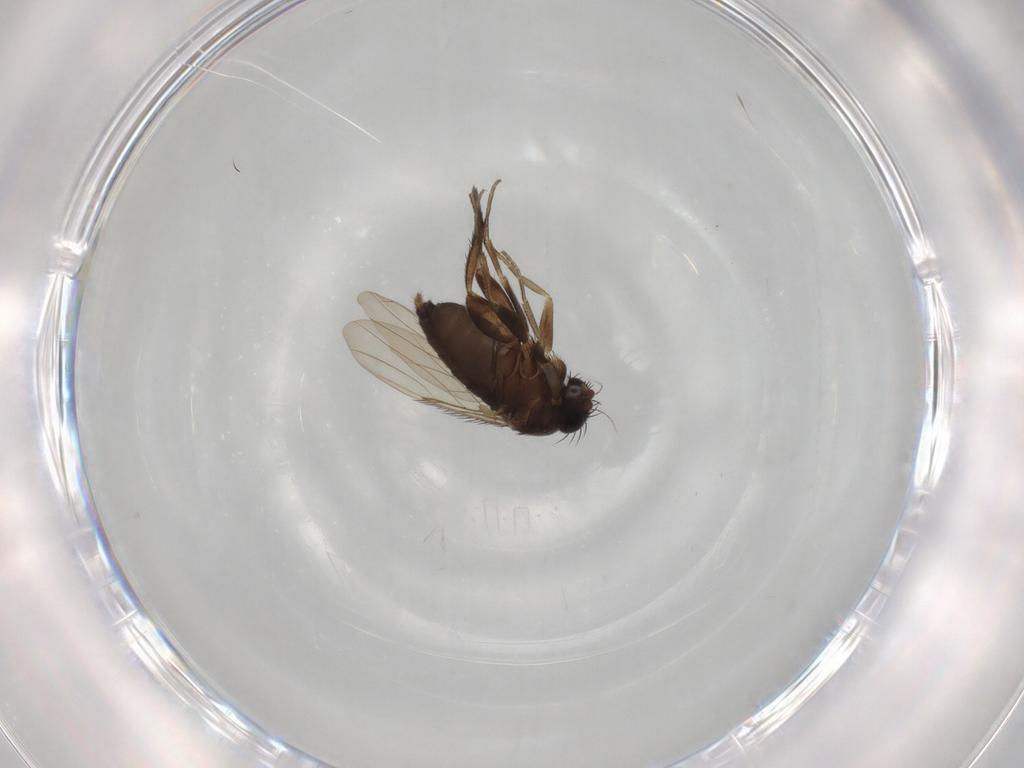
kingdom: Animalia
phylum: Arthropoda
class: Insecta
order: Diptera
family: Phoridae
